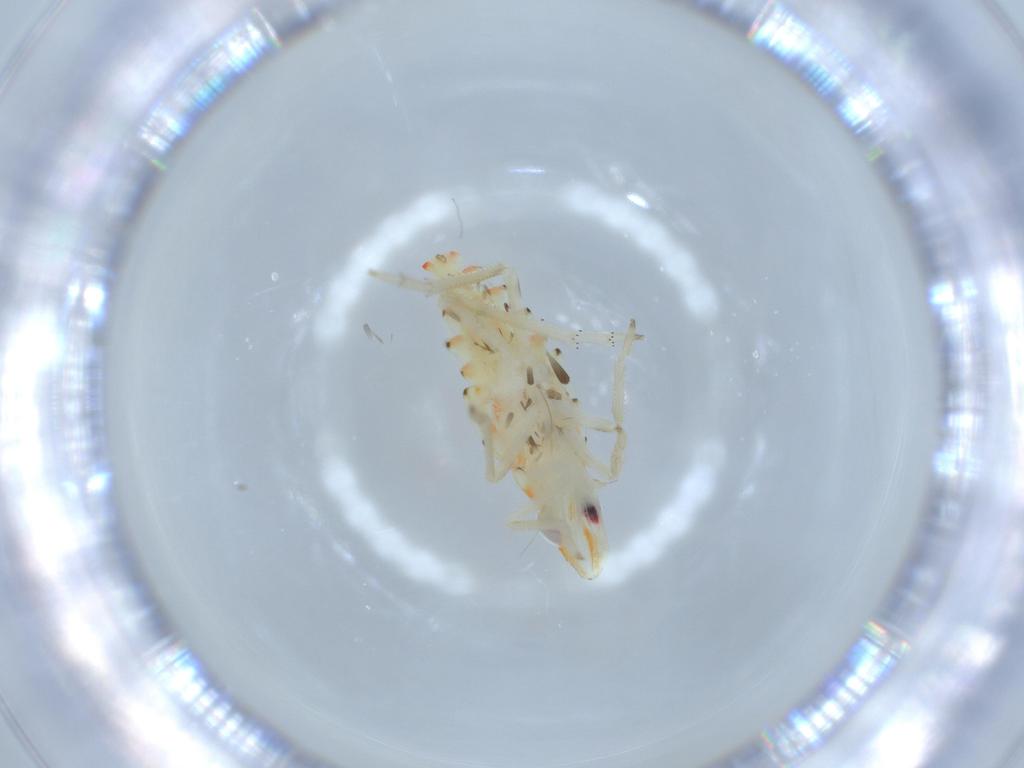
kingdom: Animalia
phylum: Arthropoda
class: Insecta
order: Hemiptera
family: Tropiduchidae
